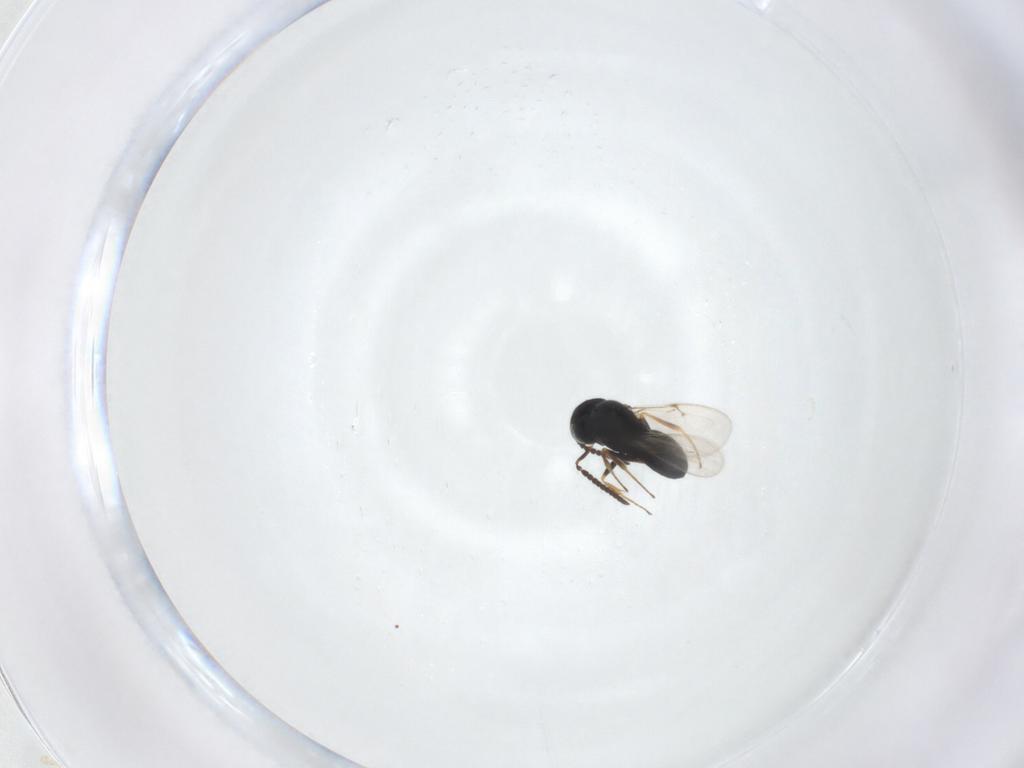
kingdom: Animalia
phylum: Arthropoda
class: Insecta
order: Hymenoptera
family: Scelionidae
